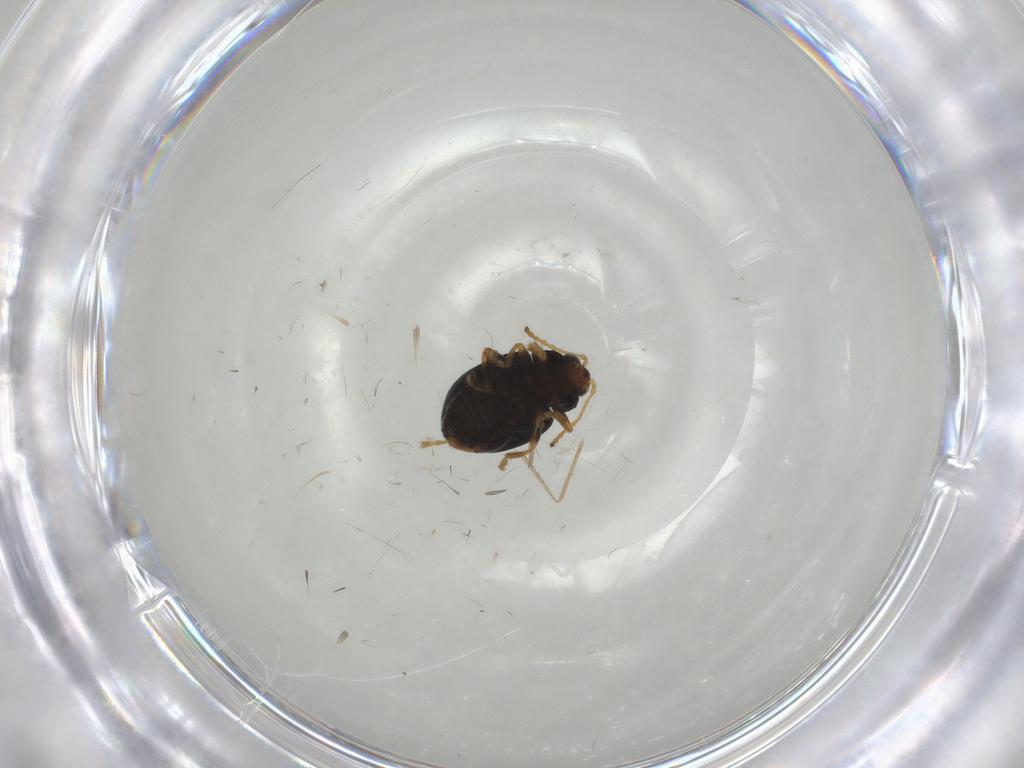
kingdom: Animalia
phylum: Arthropoda
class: Insecta
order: Coleoptera
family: Chrysomelidae
